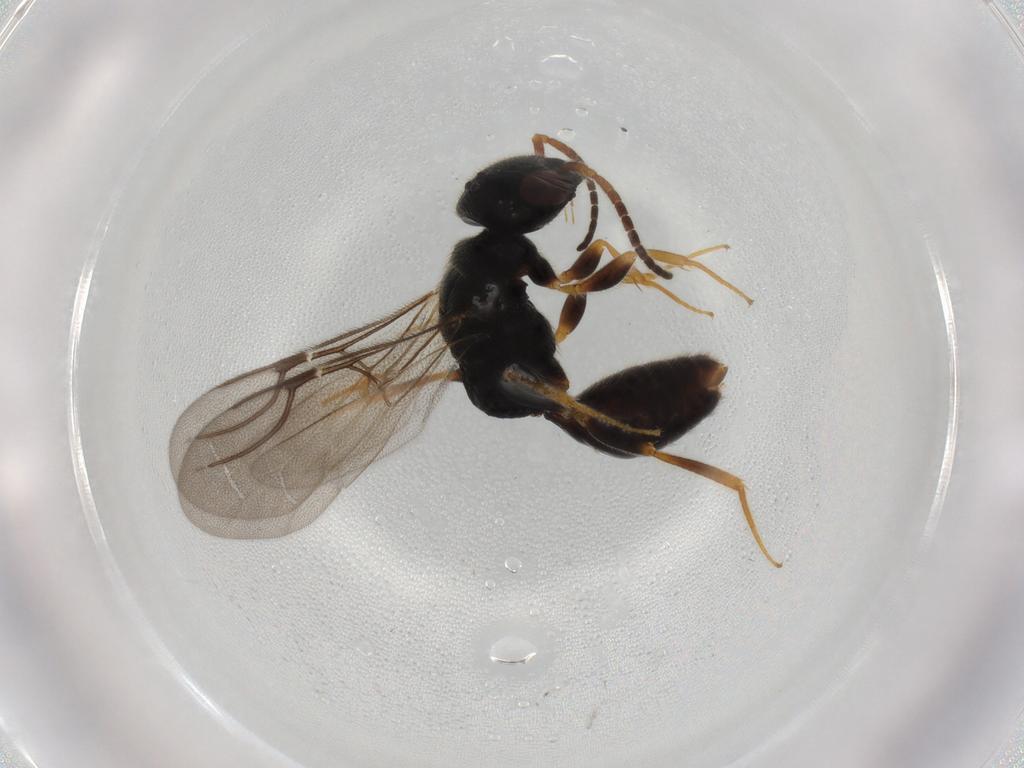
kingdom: Animalia
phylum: Arthropoda
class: Insecta
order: Hymenoptera
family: Bethylidae
